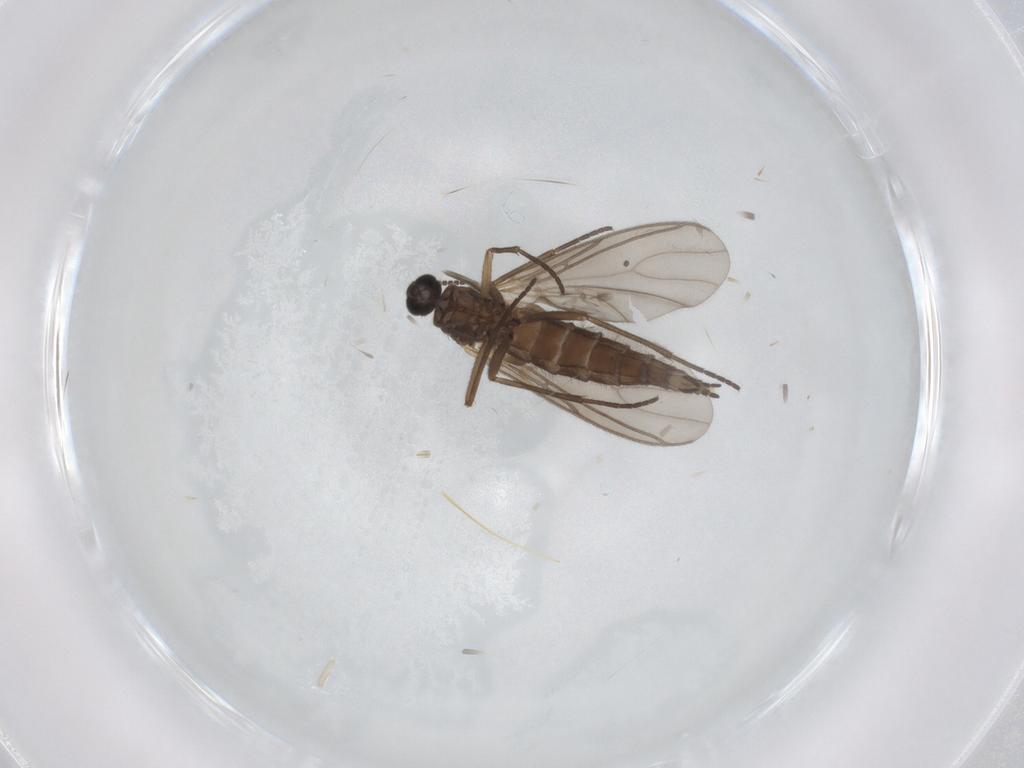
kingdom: Animalia
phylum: Arthropoda
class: Insecta
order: Diptera
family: Sciaridae
